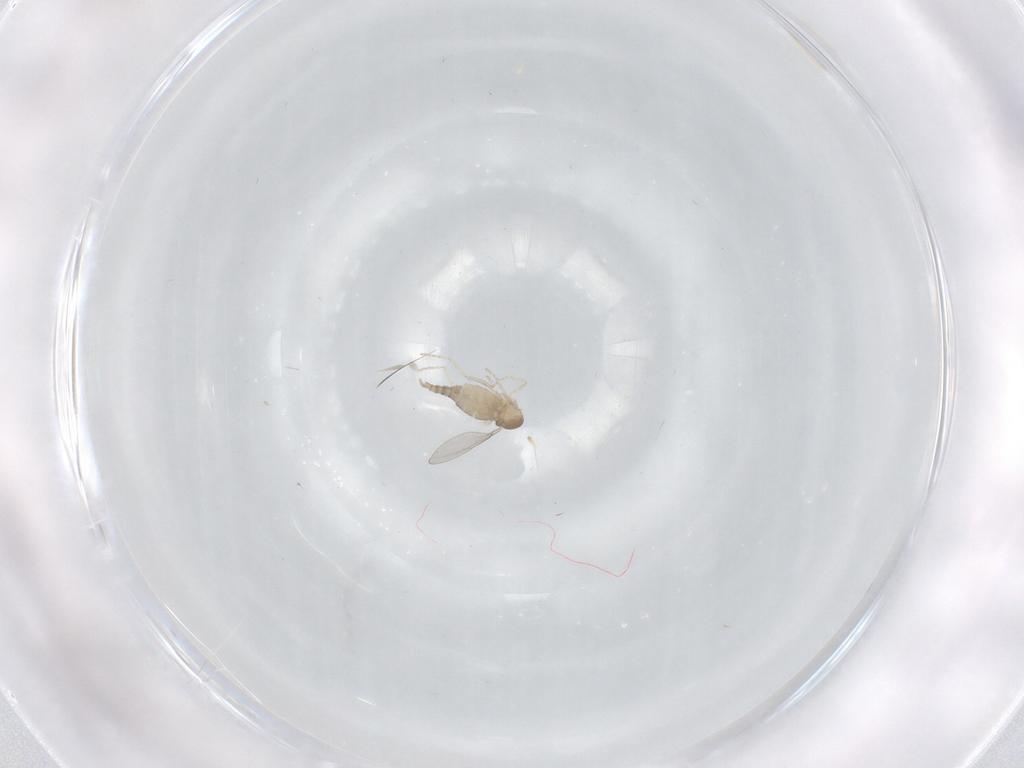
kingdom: Animalia
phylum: Arthropoda
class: Insecta
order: Diptera
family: Cecidomyiidae
